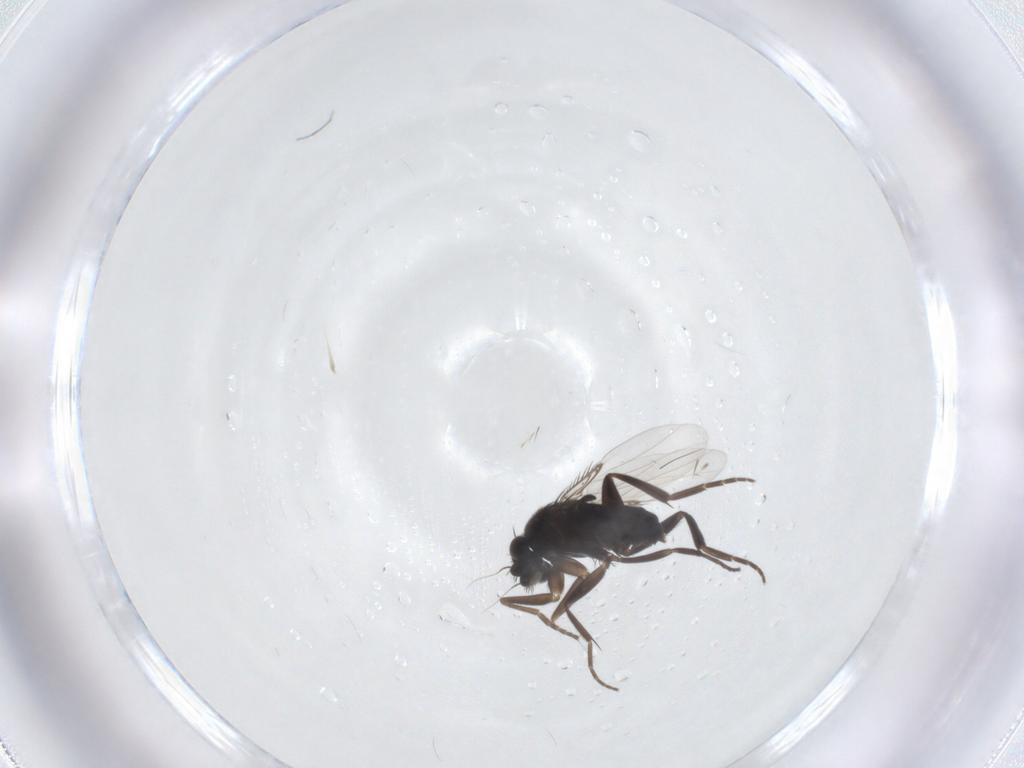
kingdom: Animalia
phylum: Arthropoda
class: Insecta
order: Diptera
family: Phoridae
